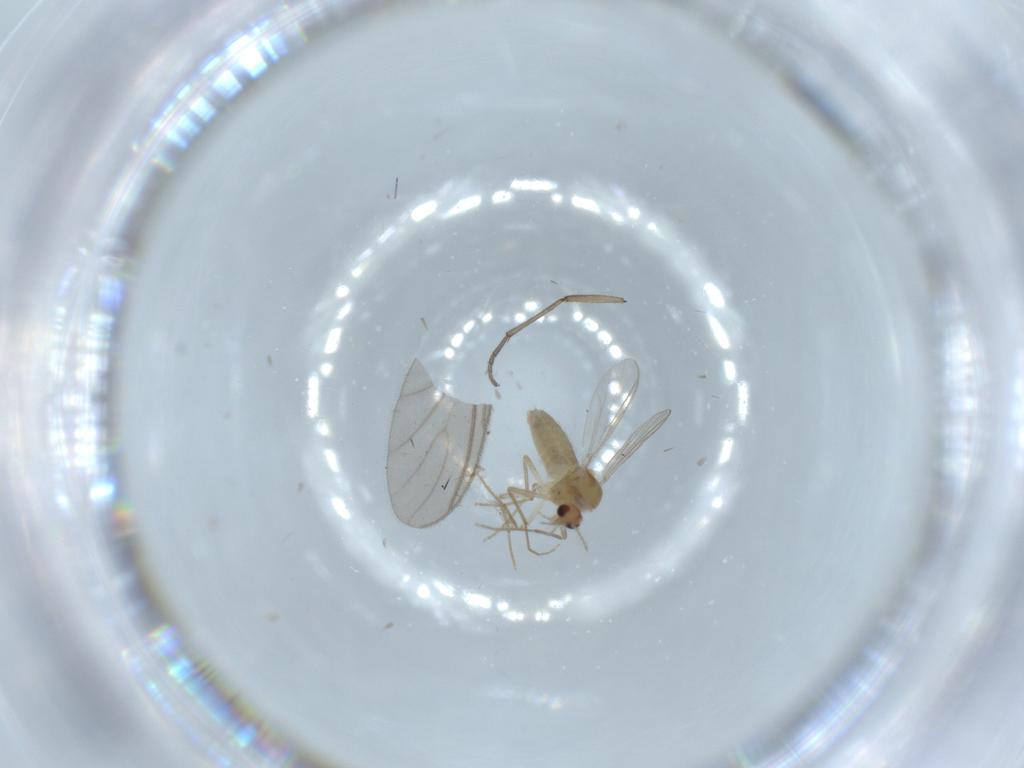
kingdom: Animalia
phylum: Arthropoda
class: Insecta
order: Diptera
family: Chironomidae
